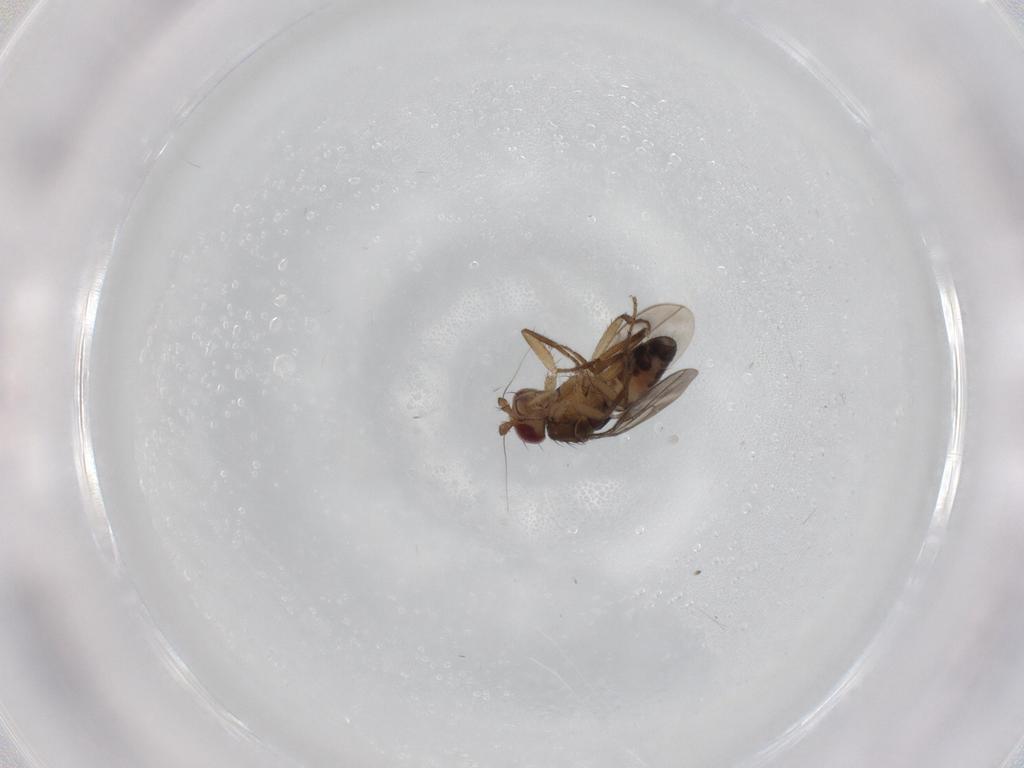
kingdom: Animalia
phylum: Arthropoda
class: Insecta
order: Diptera
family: Sphaeroceridae
